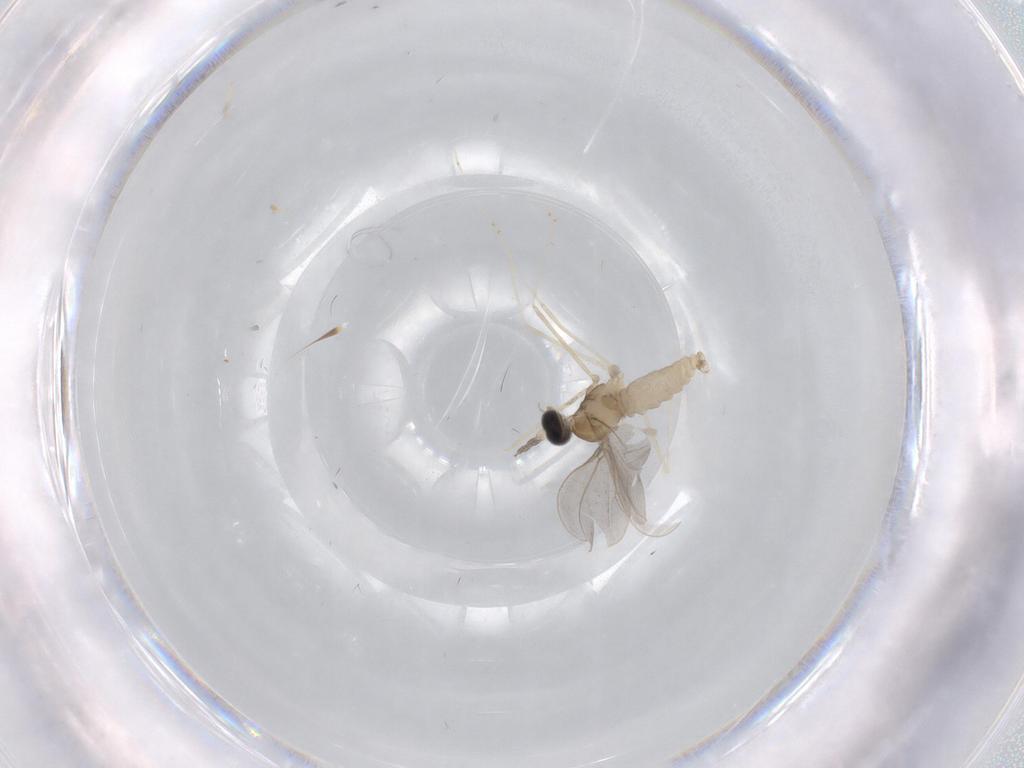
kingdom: Animalia
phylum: Arthropoda
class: Insecta
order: Diptera
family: Cecidomyiidae
